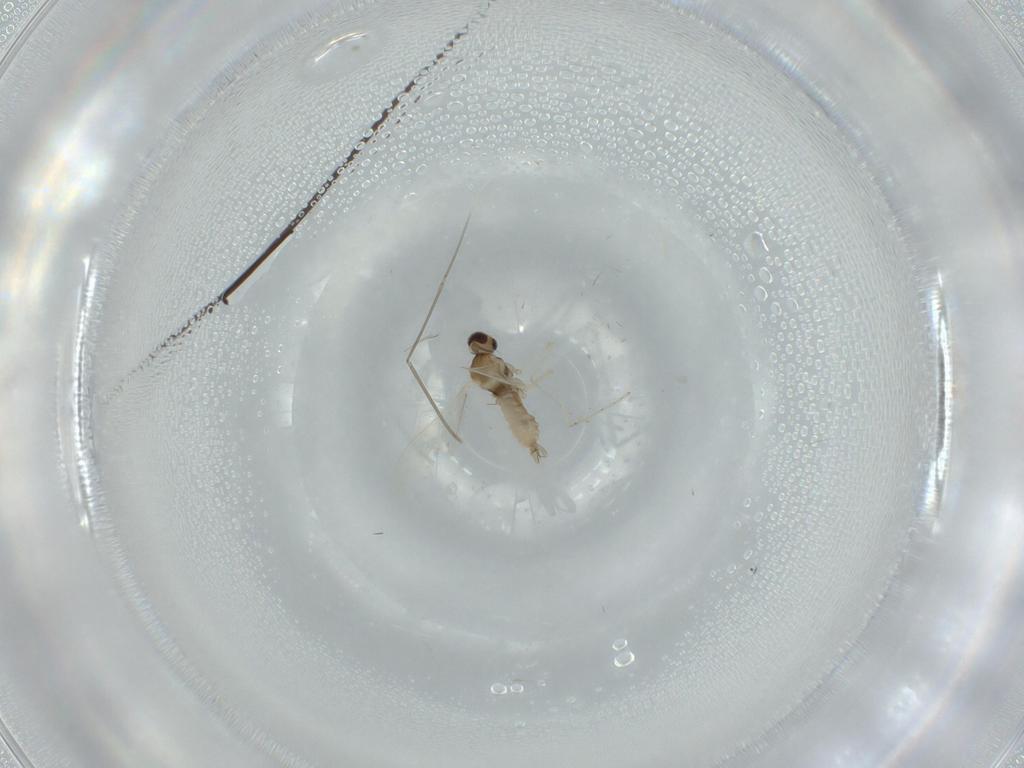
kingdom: Animalia
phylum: Arthropoda
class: Insecta
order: Diptera
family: Cecidomyiidae
